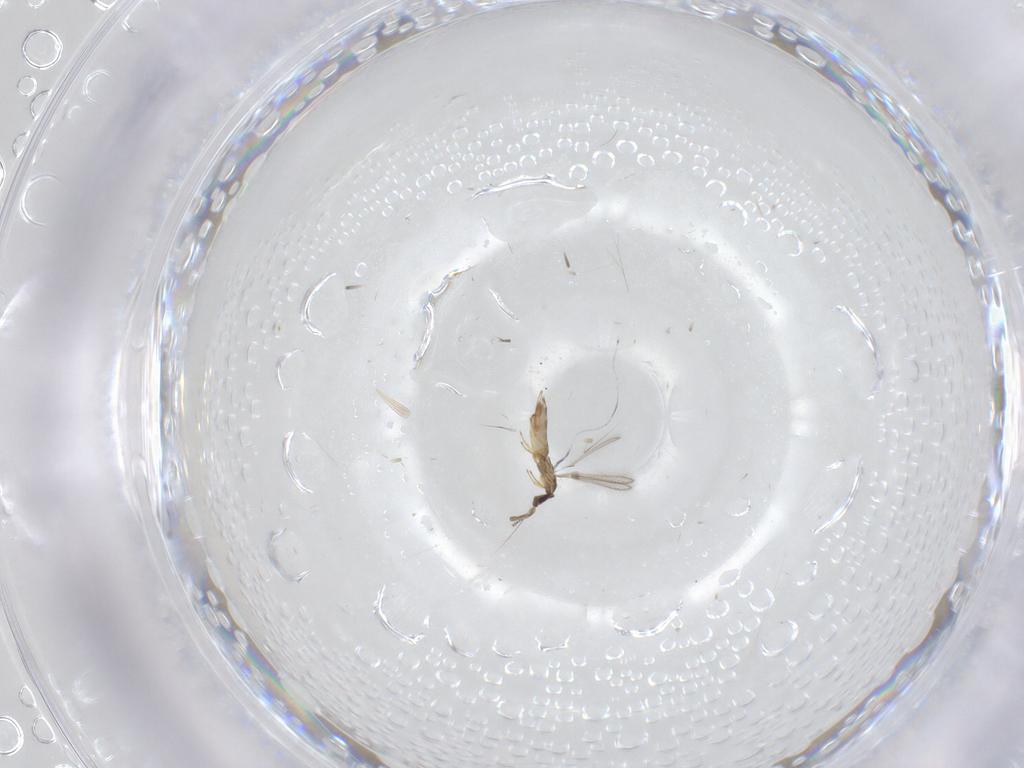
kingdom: Animalia
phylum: Arthropoda
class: Insecta
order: Hymenoptera
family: Mymaridae
